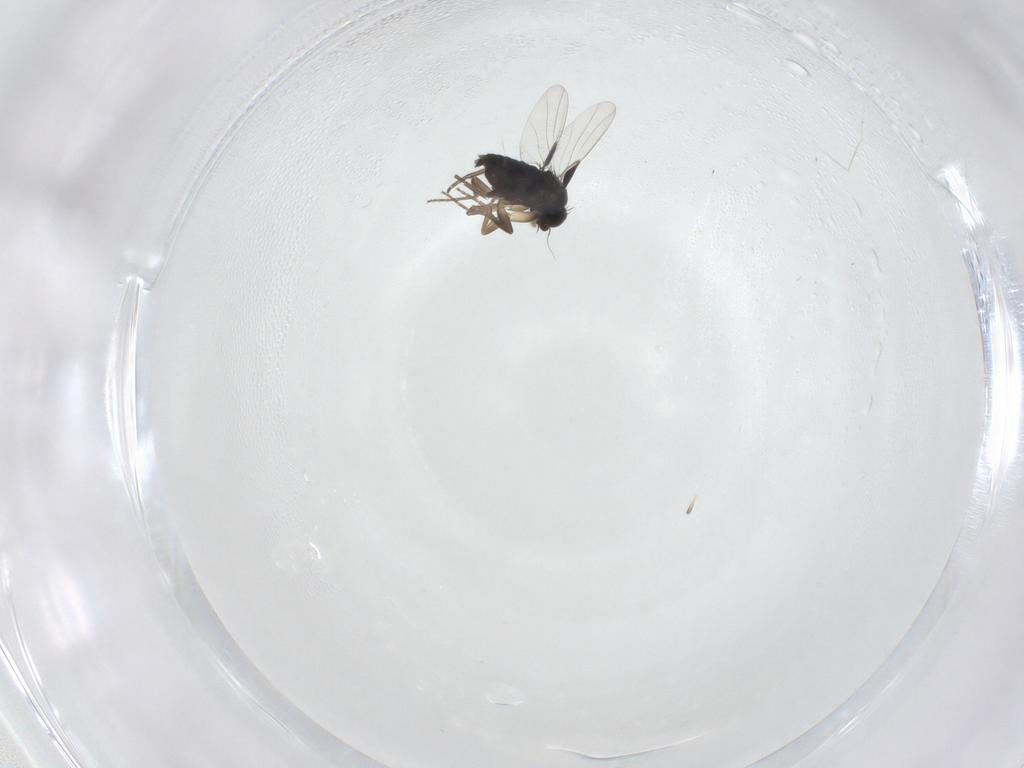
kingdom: Animalia
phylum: Arthropoda
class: Insecta
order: Diptera
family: Phoridae
